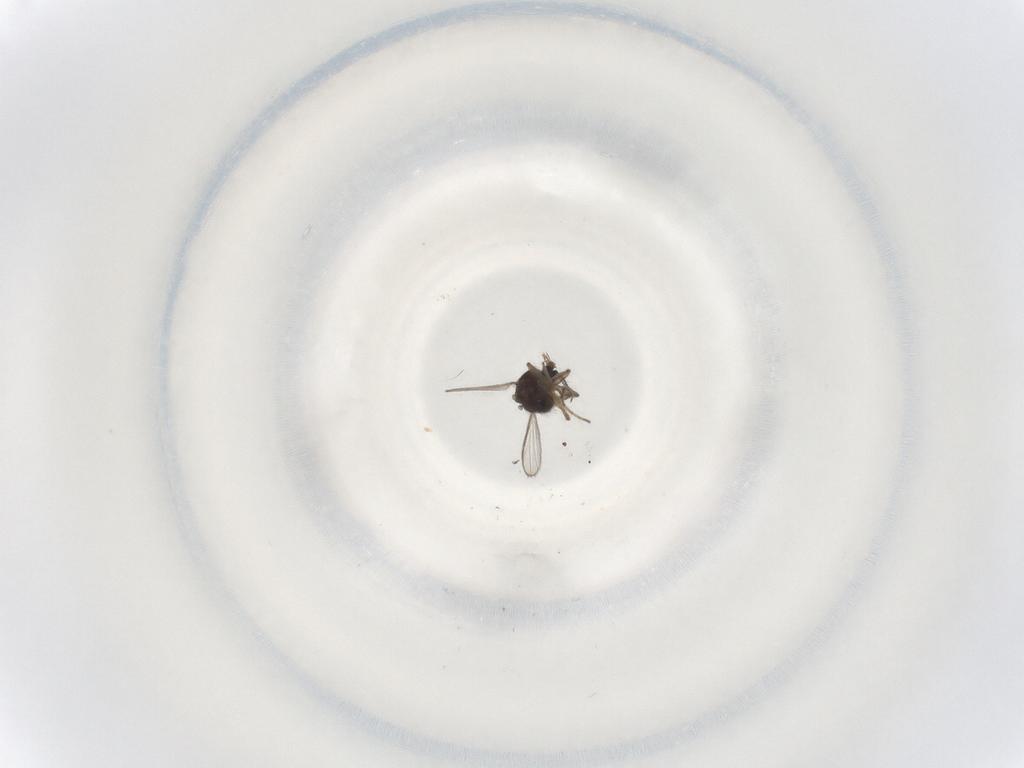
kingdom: Animalia
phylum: Arthropoda
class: Insecta
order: Diptera
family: Ceratopogonidae
